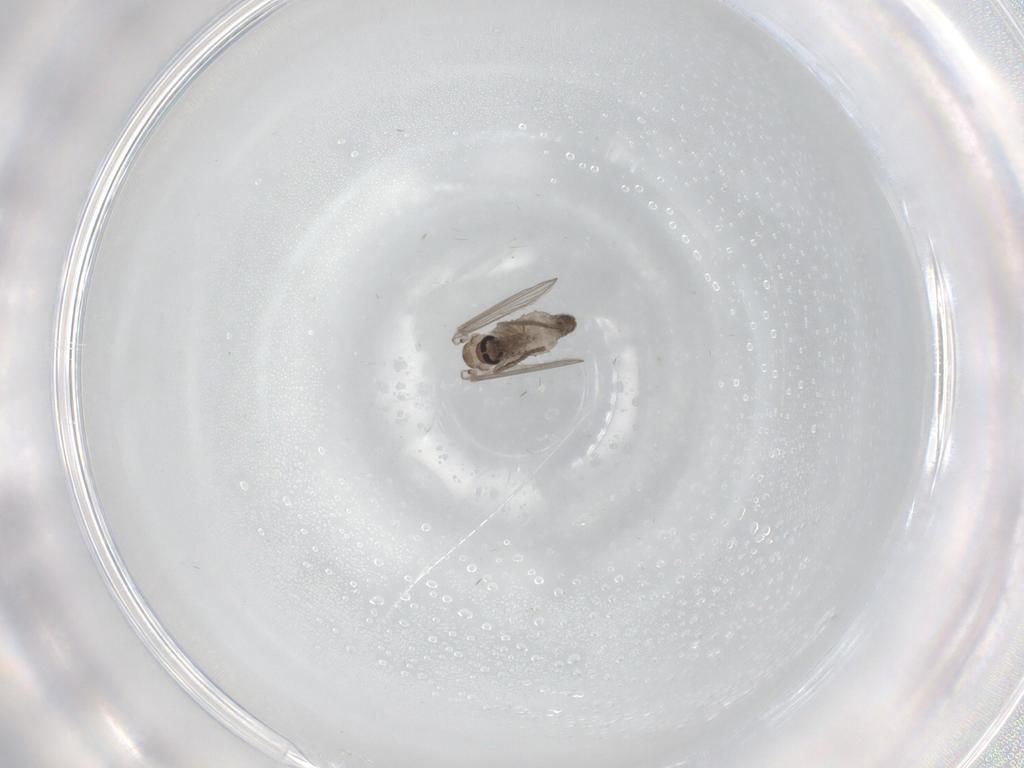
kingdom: Animalia
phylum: Arthropoda
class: Insecta
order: Diptera
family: Psychodidae
